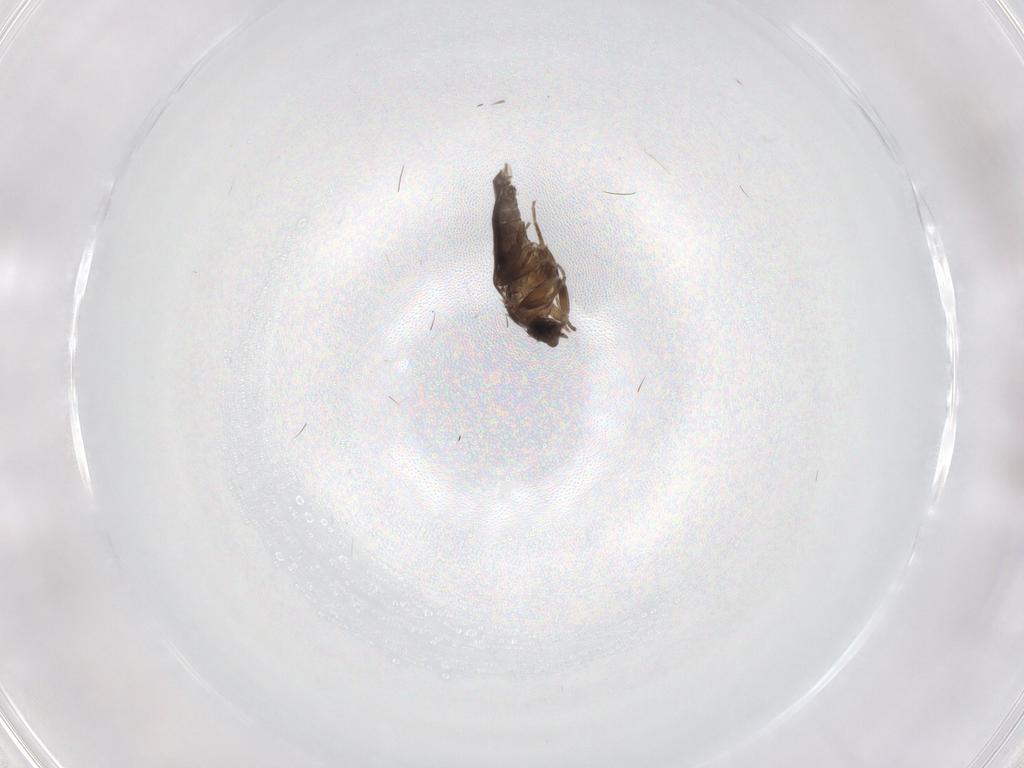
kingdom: Animalia
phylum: Arthropoda
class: Insecta
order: Diptera
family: Phoridae
